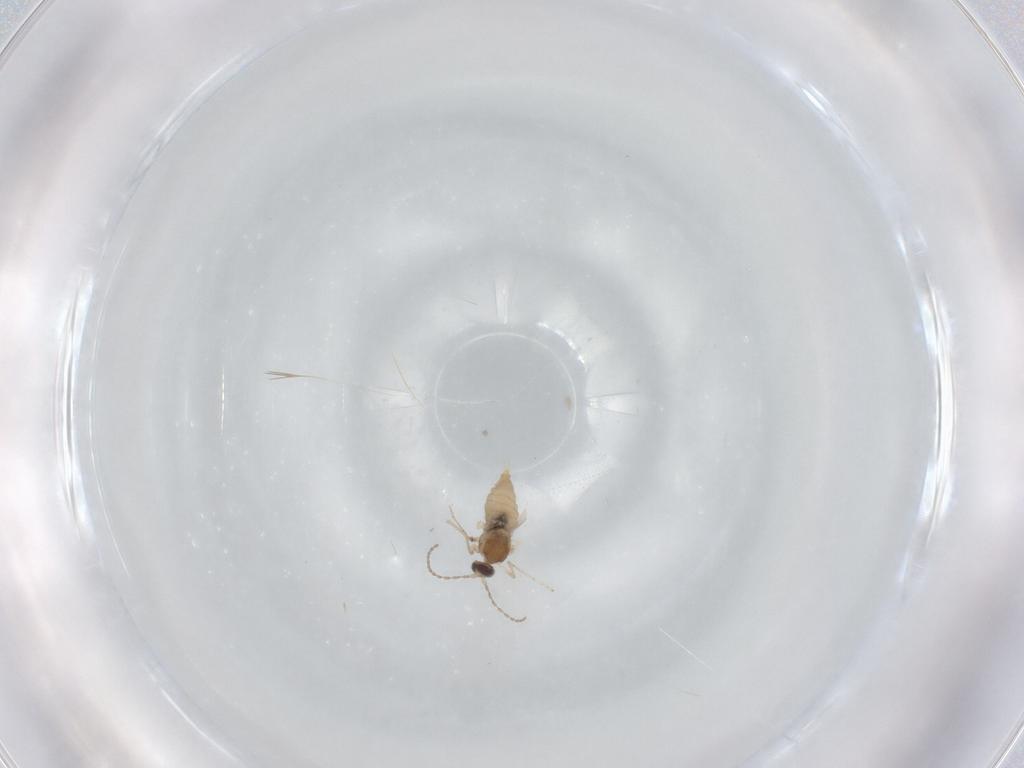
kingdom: Animalia
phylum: Arthropoda
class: Insecta
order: Diptera
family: Cecidomyiidae
